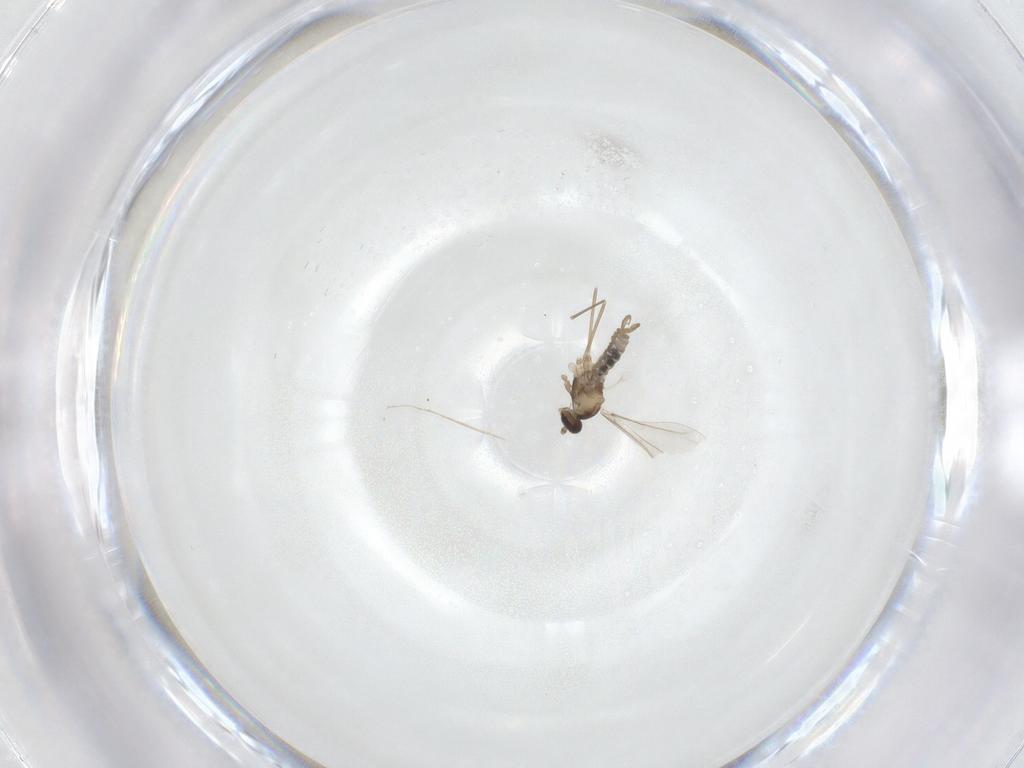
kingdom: Animalia
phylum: Arthropoda
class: Insecta
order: Diptera
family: Cecidomyiidae
